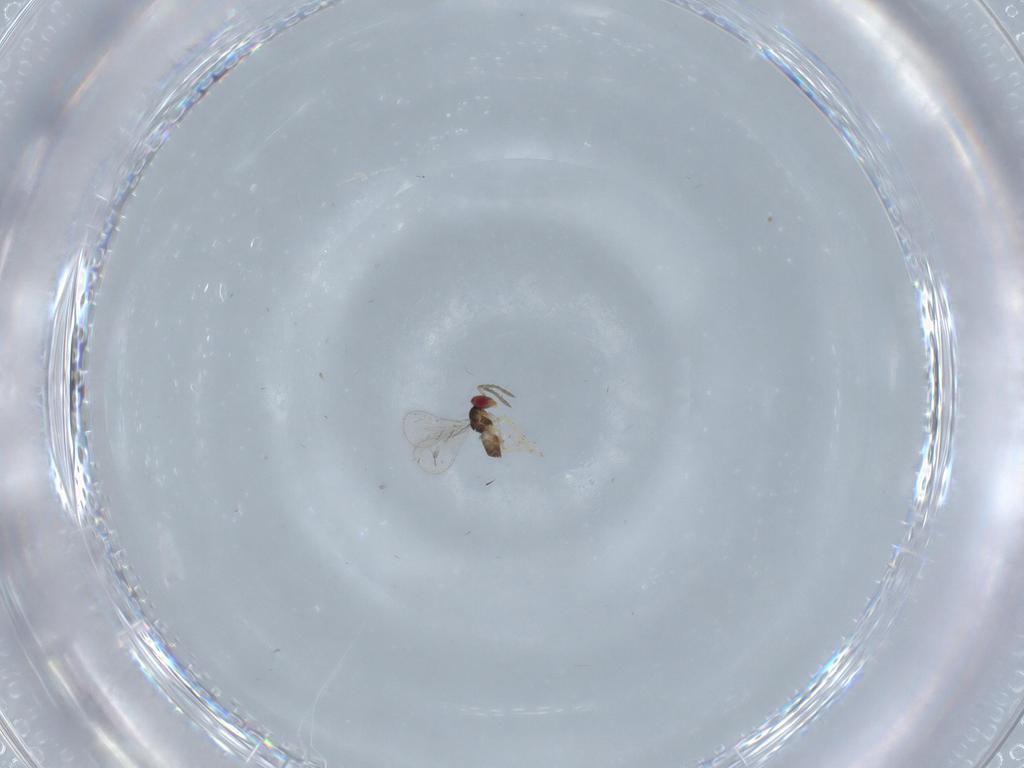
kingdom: Animalia
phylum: Arthropoda
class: Insecta
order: Hymenoptera
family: Eulophidae
